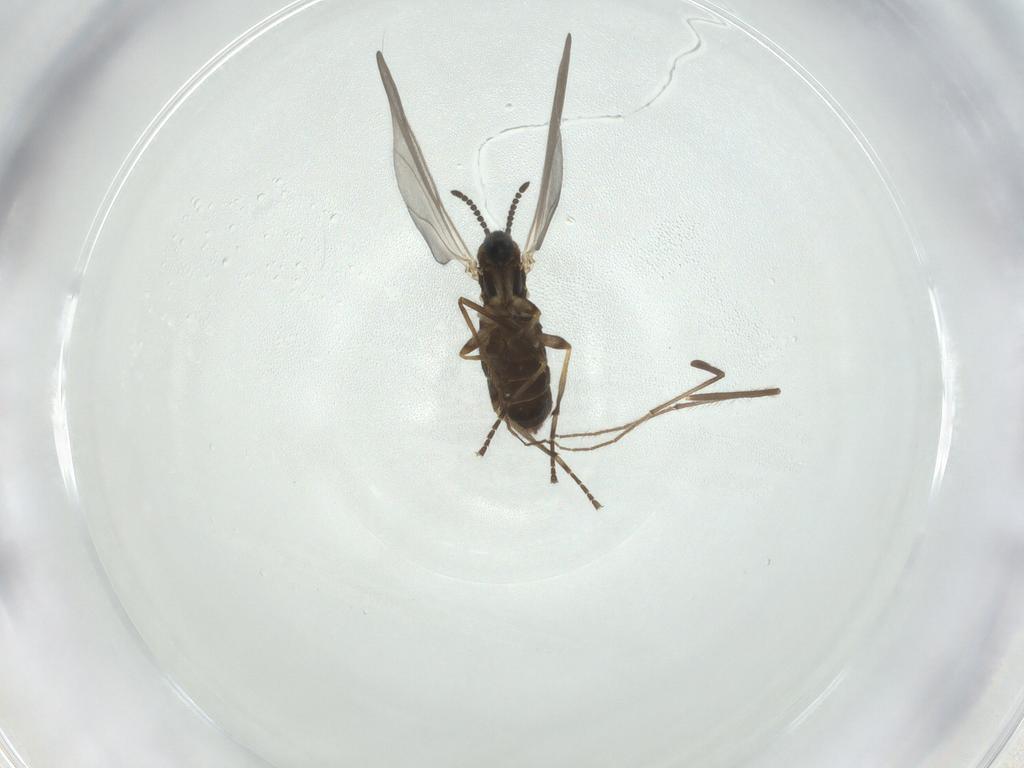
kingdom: Animalia
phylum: Arthropoda
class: Insecta
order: Diptera
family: Scatopsidae
